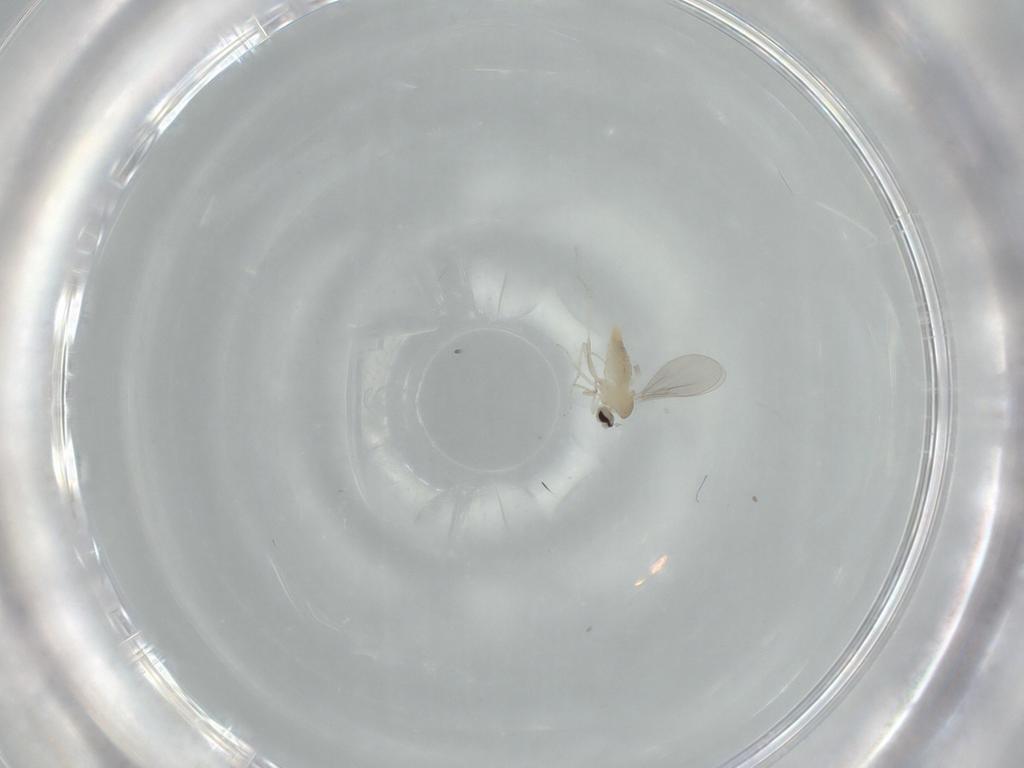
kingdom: Animalia
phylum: Arthropoda
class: Insecta
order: Diptera
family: Cecidomyiidae
